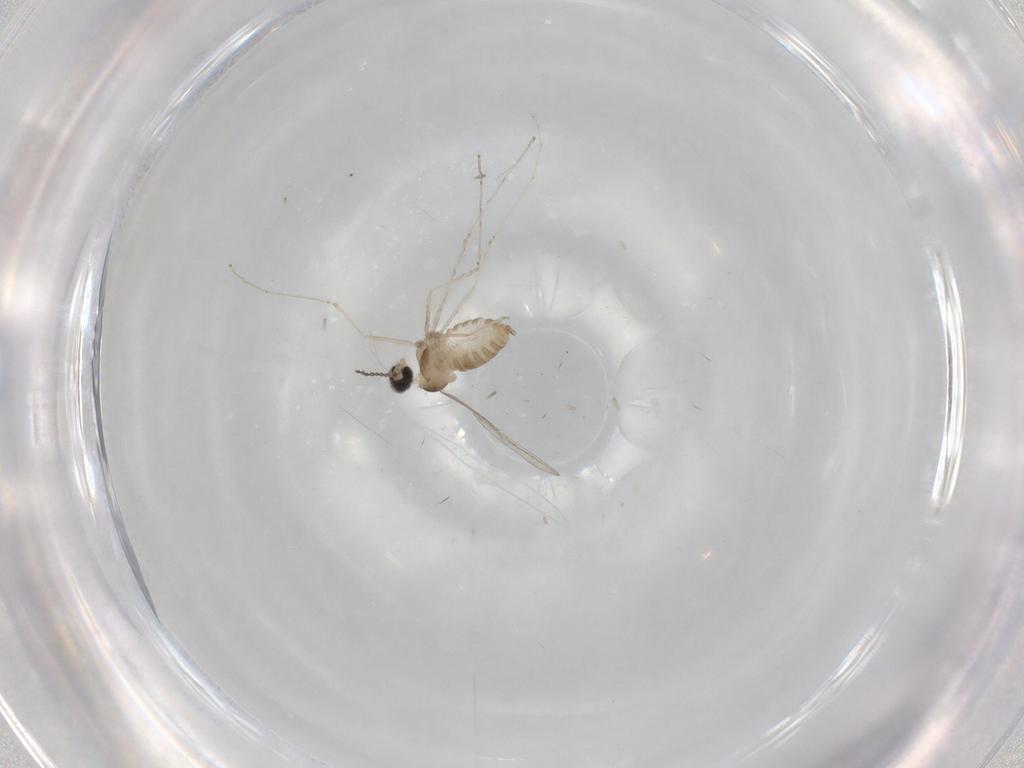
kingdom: Animalia
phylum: Arthropoda
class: Insecta
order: Diptera
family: Cecidomyiidae
